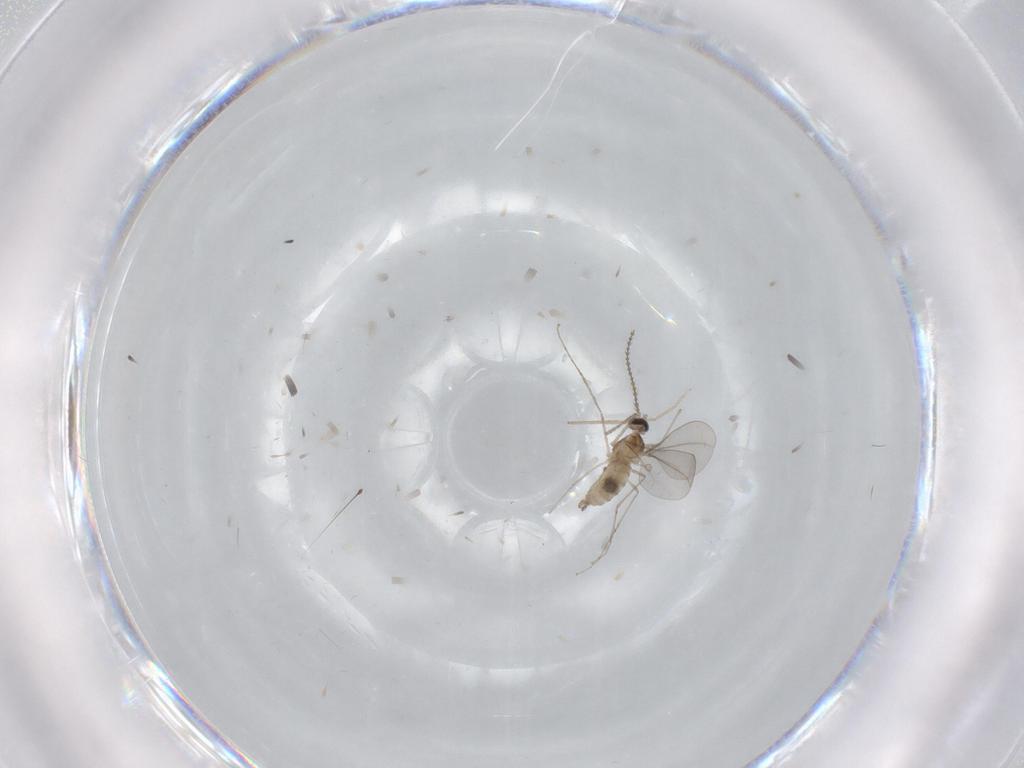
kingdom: Animalia
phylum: Arthropoda
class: Insecta
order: Diptera
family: Chironomidae
